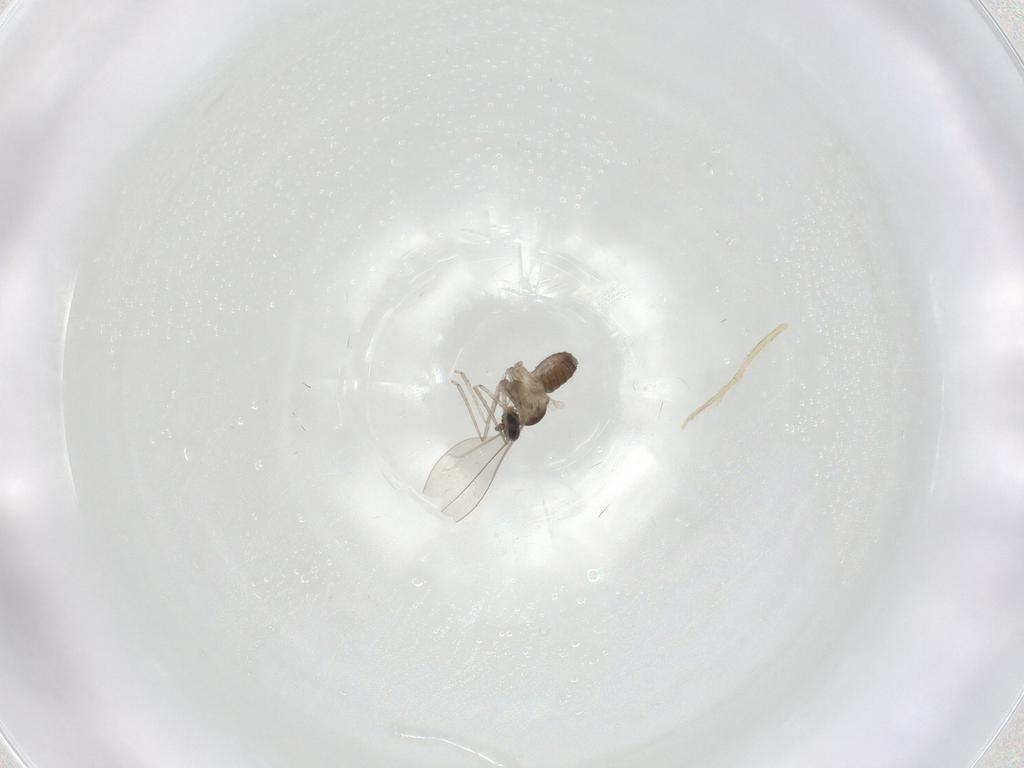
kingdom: Animalia
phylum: Arthropoda
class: Insecta
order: Diptera
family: Cecidomyiidae
